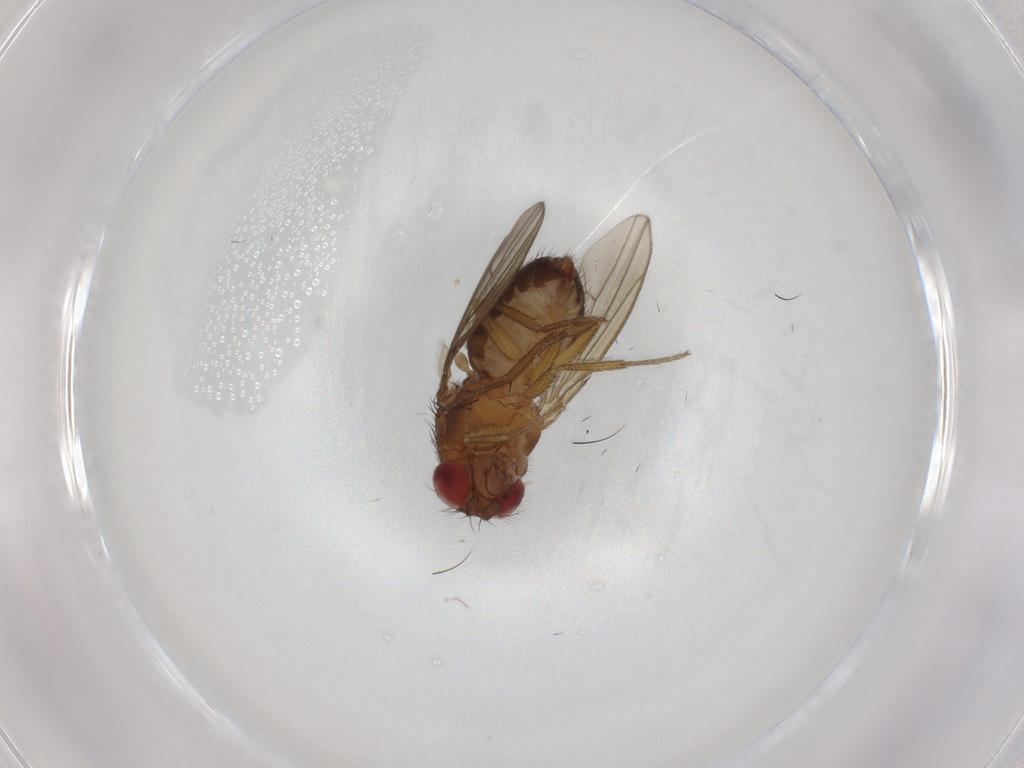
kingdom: Animalia
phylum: Arthropoda
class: Insecta
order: Diptera
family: Drosophilidae
